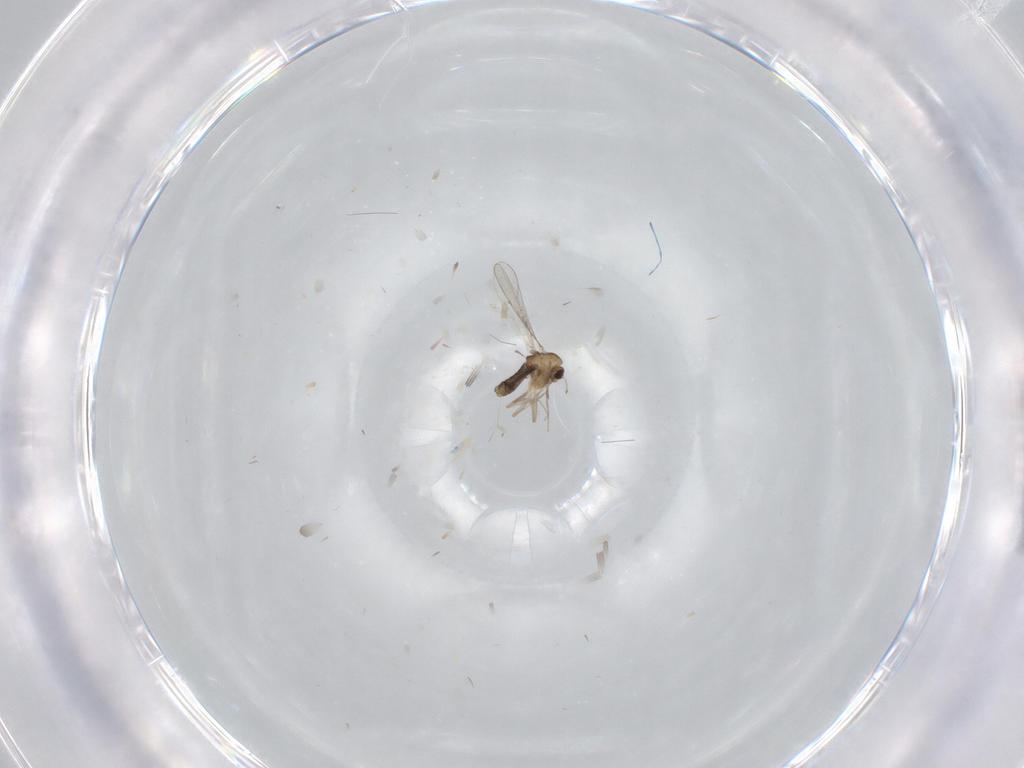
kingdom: Animalia
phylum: Arthropoda
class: Insecta
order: Diptera
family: Chironomidae
